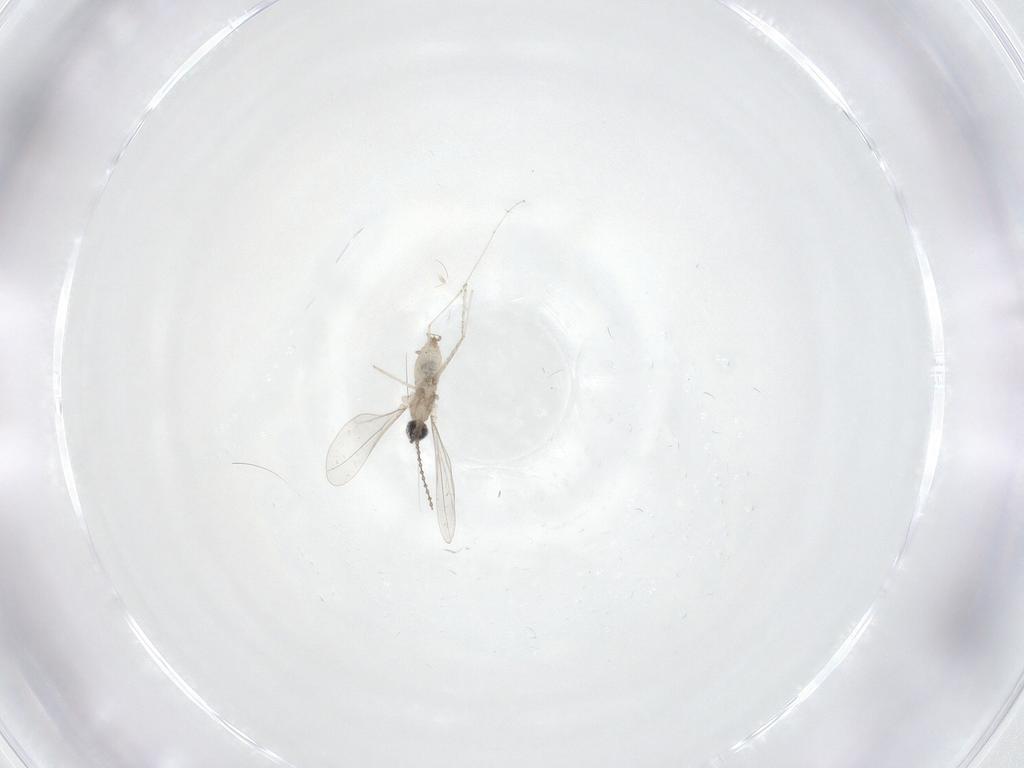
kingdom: Animalia
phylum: Arthropoda
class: Insecta
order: Diptera
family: Cecidomyiidae
